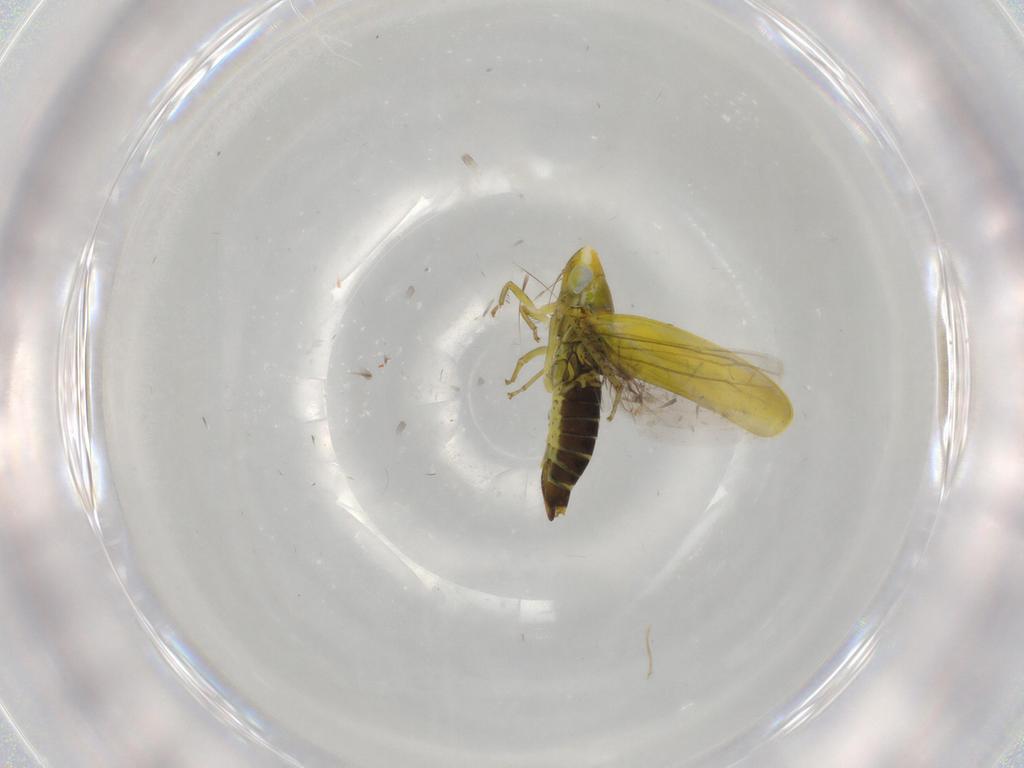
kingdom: Animalia
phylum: Arthropoda
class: Insecta
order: Hemiptera
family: Cicadellidae
